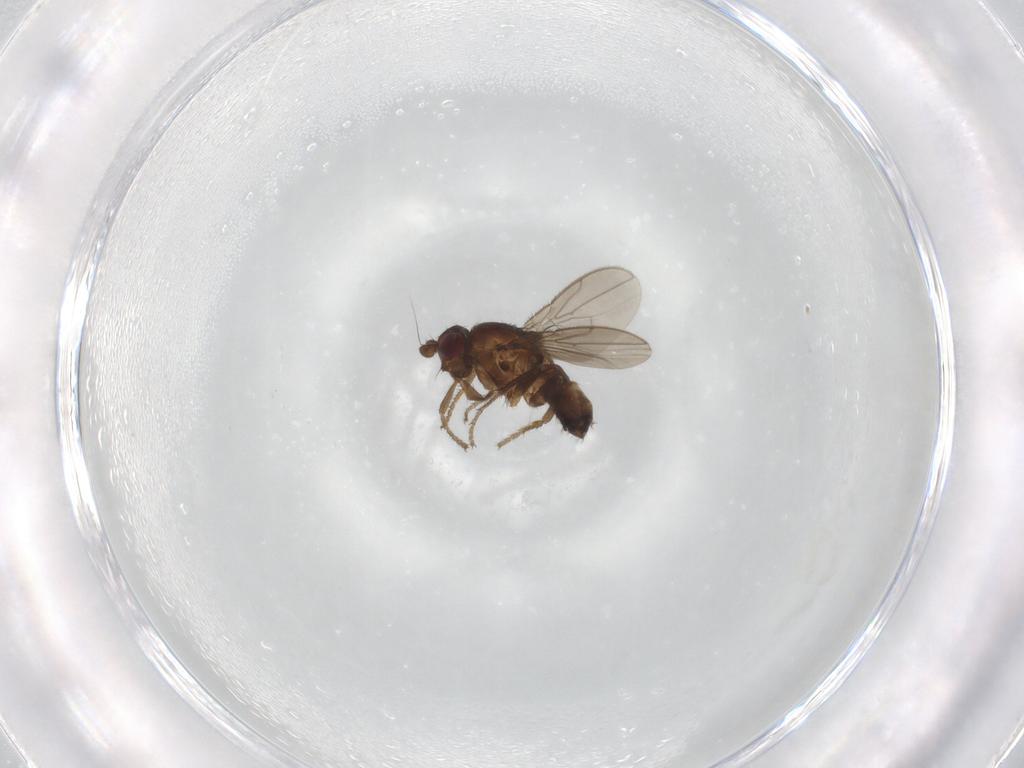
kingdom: Animalia
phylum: Arthropoda
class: Insecta
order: Diptera
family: Sphaeroceridae
